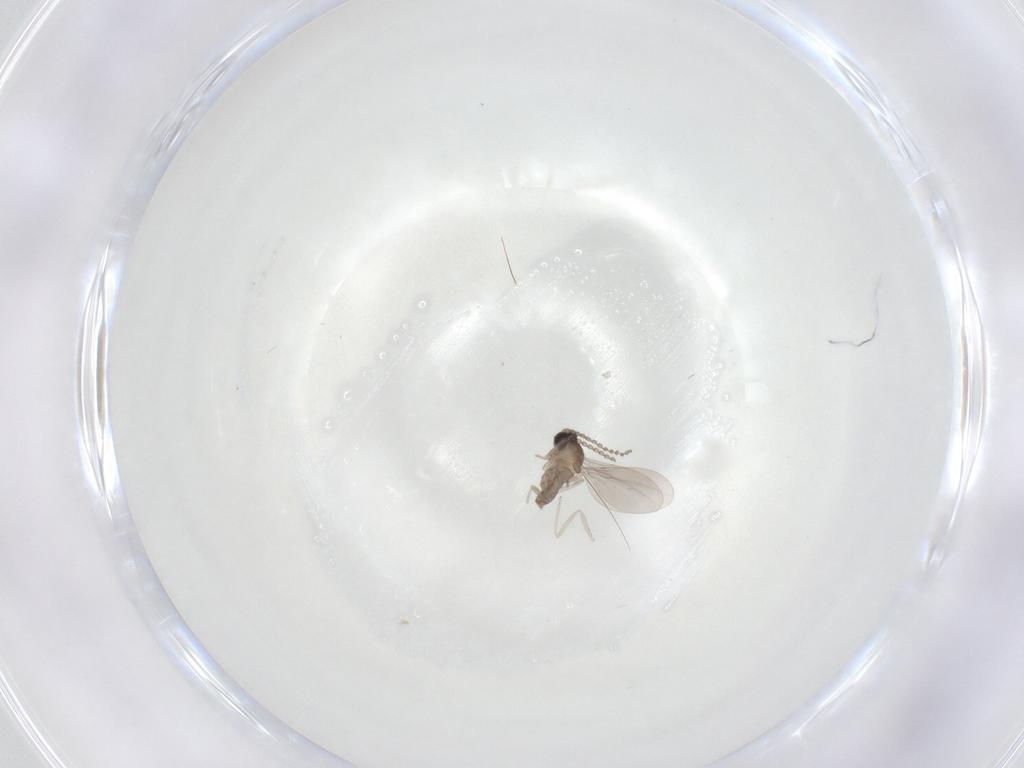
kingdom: Animalia
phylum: Arthropoda
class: Insecta
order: Diptera
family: Cecidomyiidae
